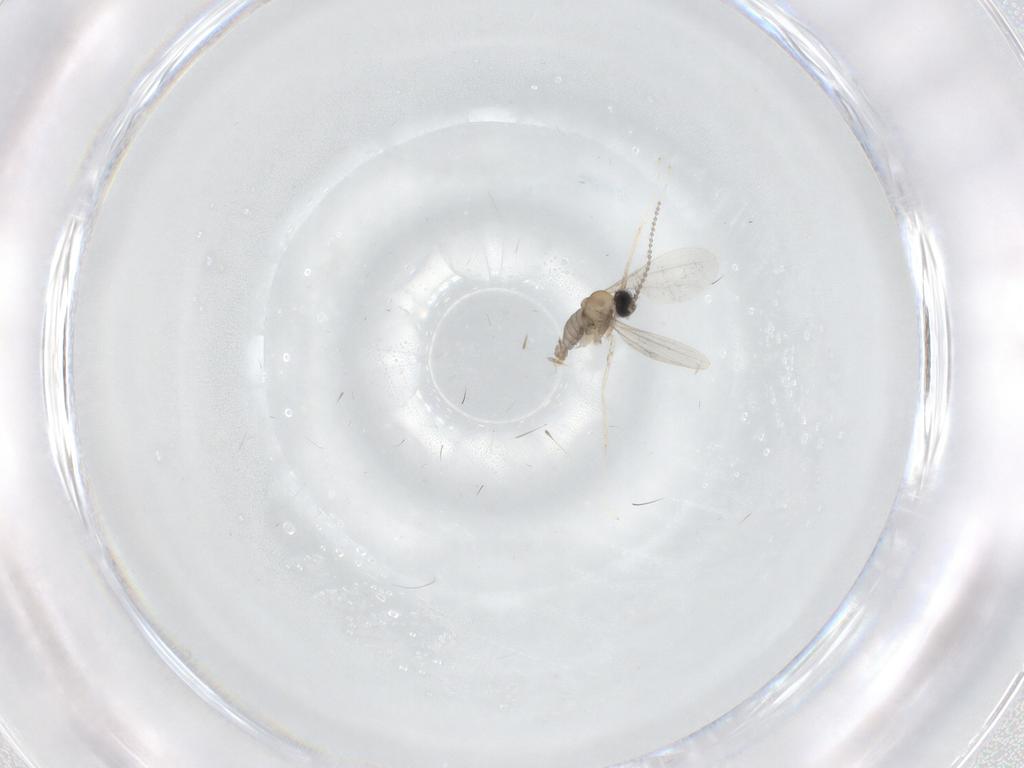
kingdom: Animalia
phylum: Arthropoda
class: Insecta
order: Diptera
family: Cecidomyiidae
